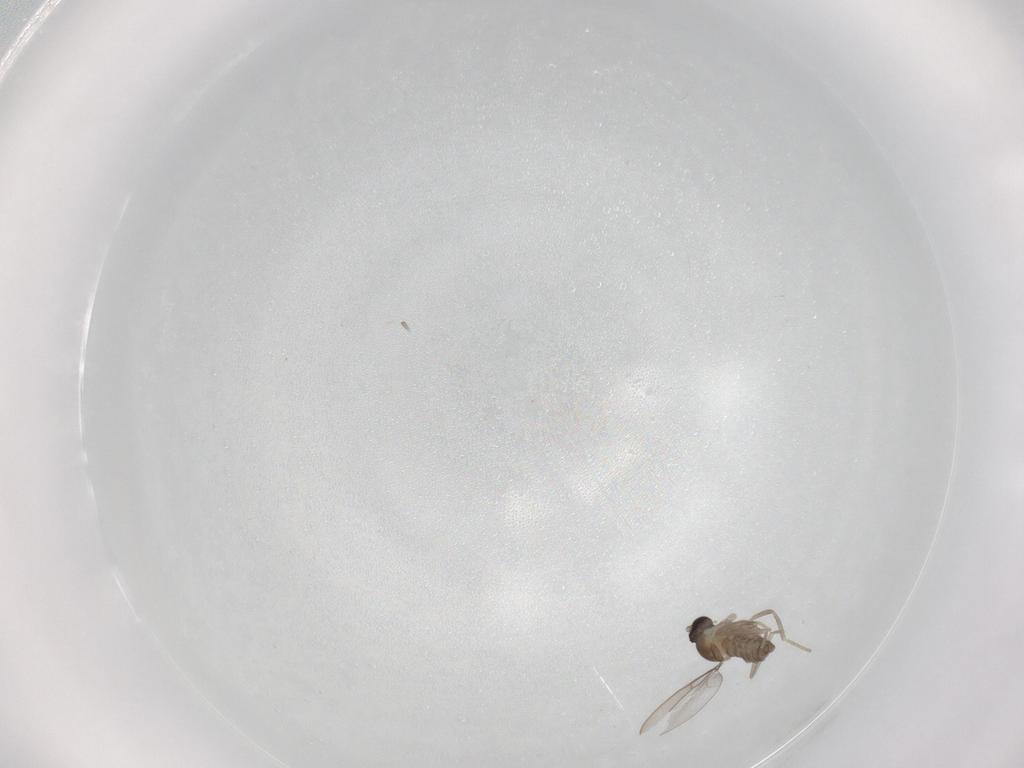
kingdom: Animalia
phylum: Arthropoda
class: Insecta
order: Diptera
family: Cecidomyiidae
